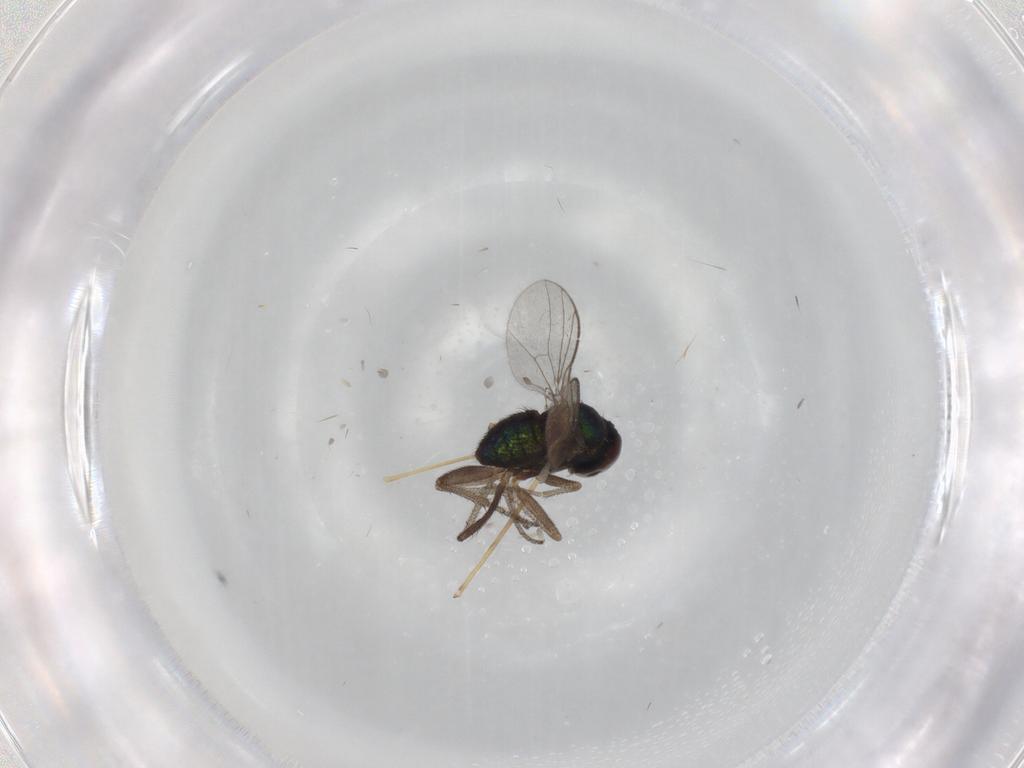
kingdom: Animalia
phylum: Arthropoda
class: Insecta
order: Diptera
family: Limoniidae
